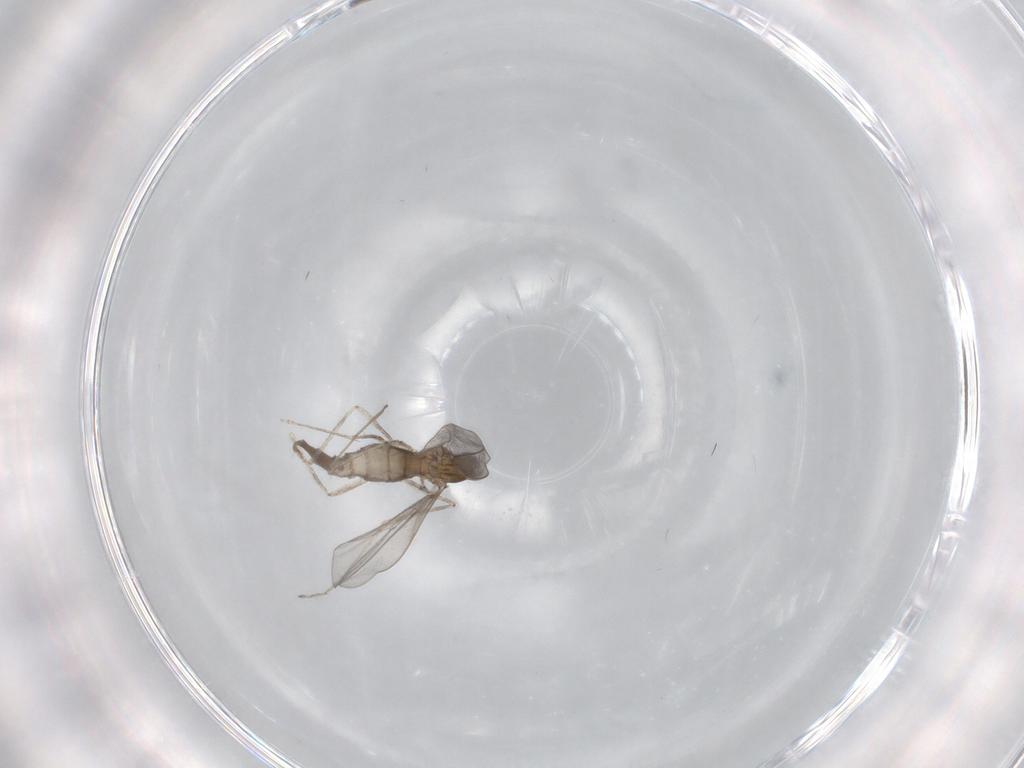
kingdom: Animalia
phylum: Arthropoda
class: Insecta
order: Diptera
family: Cecidomyiidae
